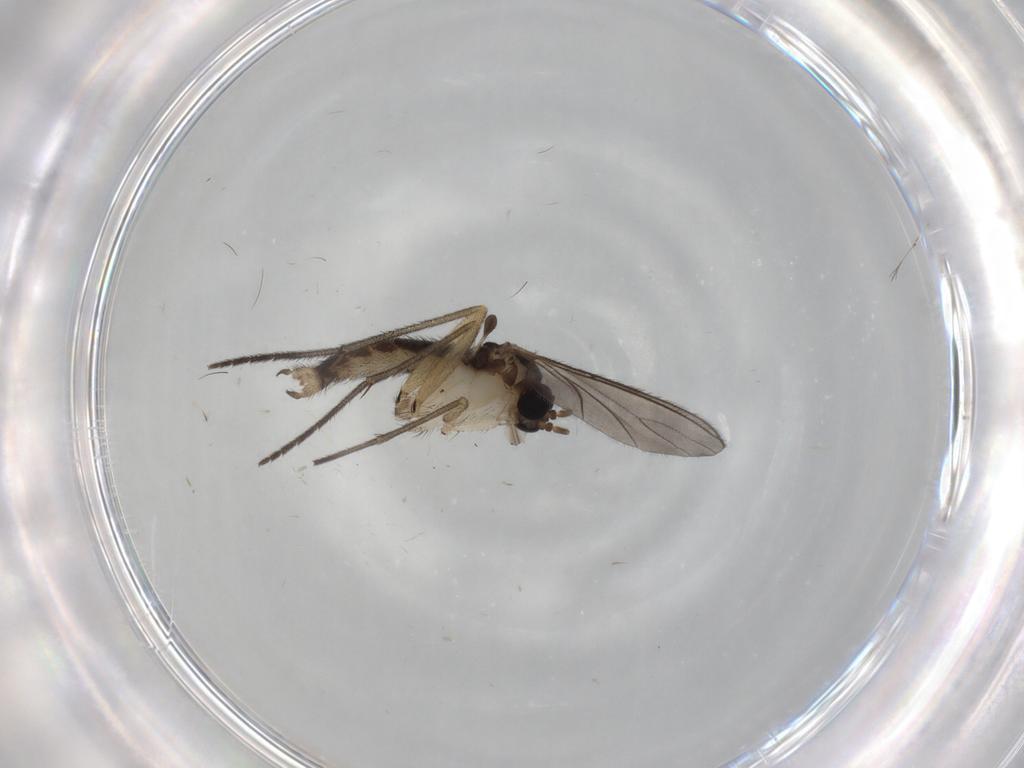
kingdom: Animalia
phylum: Arthropoda
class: Insecta
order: Diptera
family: Sciaridae
